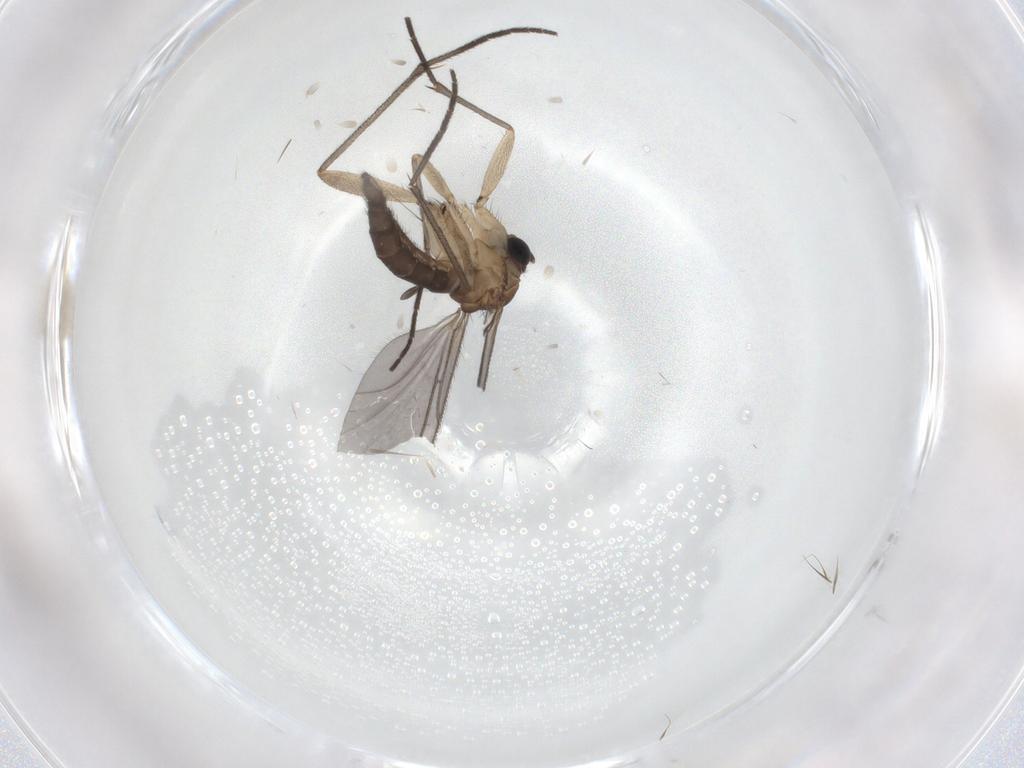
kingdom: Animalia
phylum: Arthropoda
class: Insecta
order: Diptera
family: Sciaridae
